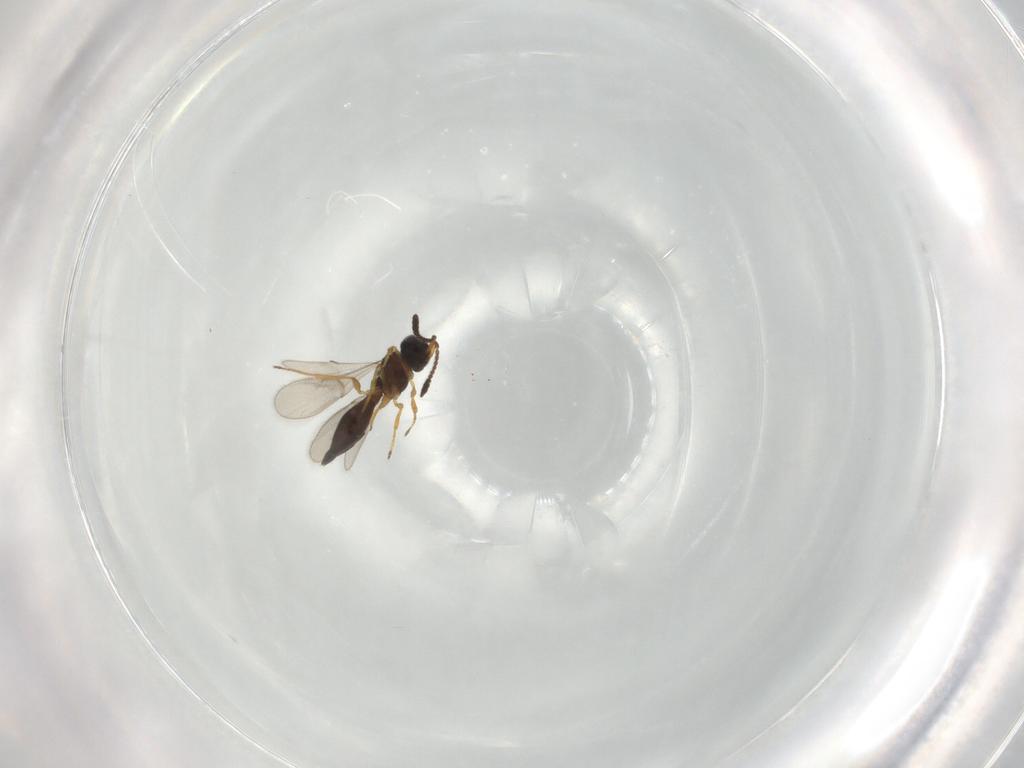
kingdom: Animalia
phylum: Arthropoda
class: Insecta
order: Hymenoptera
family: Scelionidae
